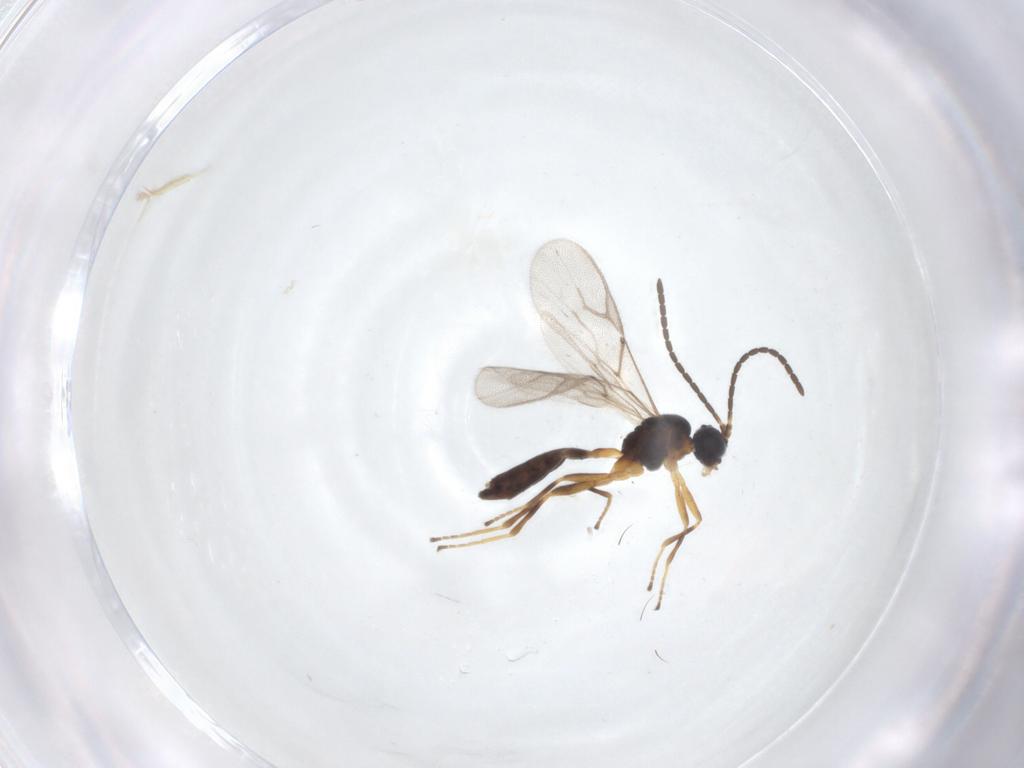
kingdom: Animalia
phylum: Arthropoda
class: Insecta
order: Hymenoptera
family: Braconidae
